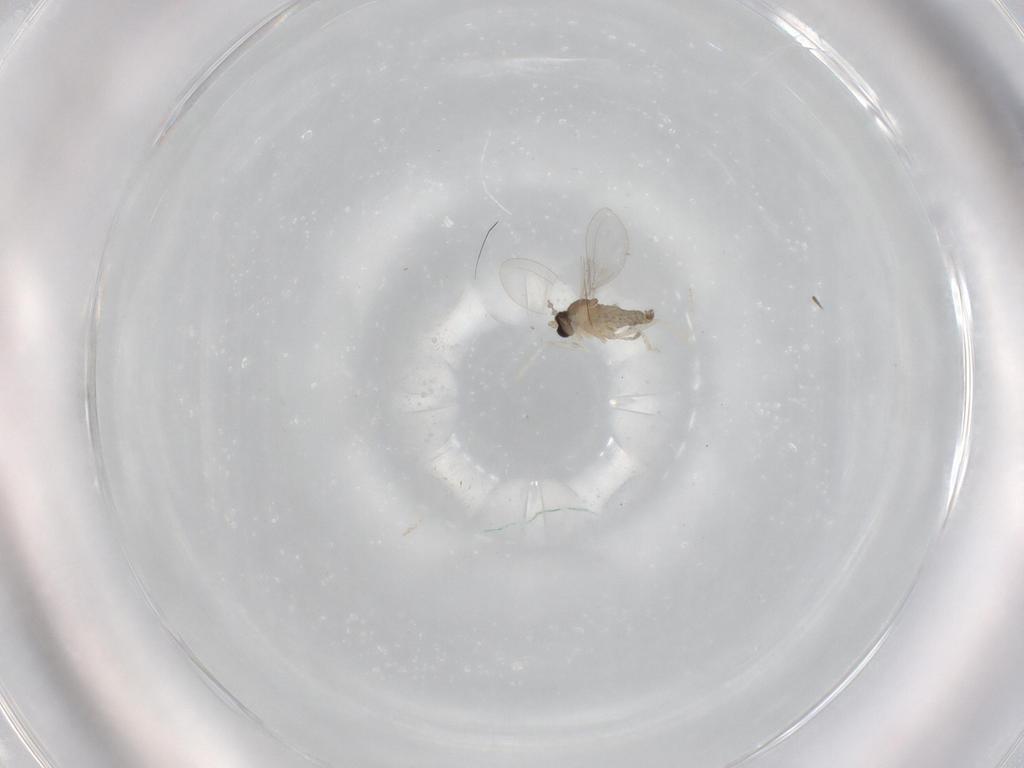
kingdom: Animalia
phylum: Arthropoda
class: Insecta
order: Diptera
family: Cecidomyiidae
